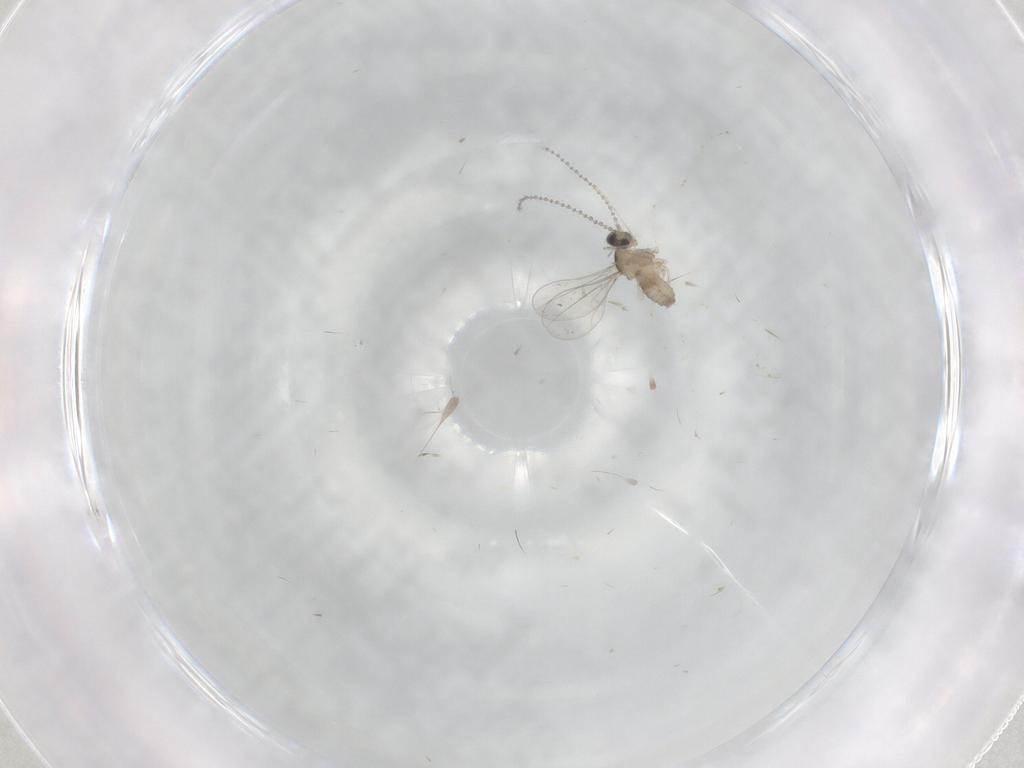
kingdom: Animalia
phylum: Arthropoda
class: Insecta
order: Diptera
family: Cecidomyiidae
